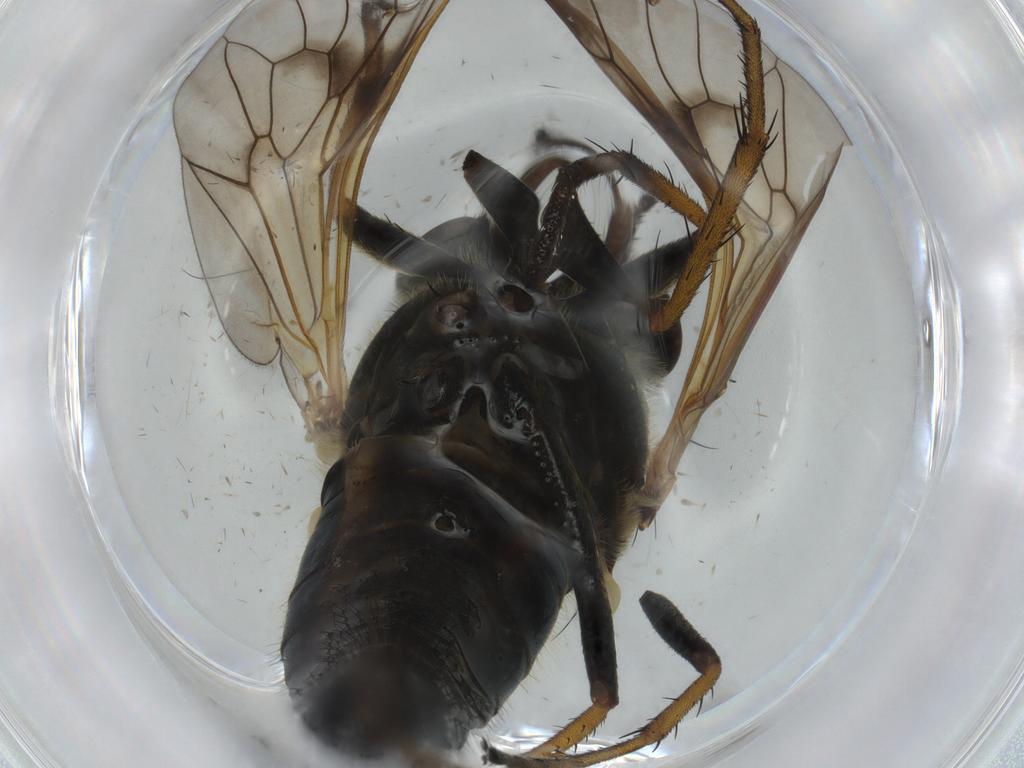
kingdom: Animalia
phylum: Arthropoda
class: Insecta
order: Diptera
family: Therevidae
